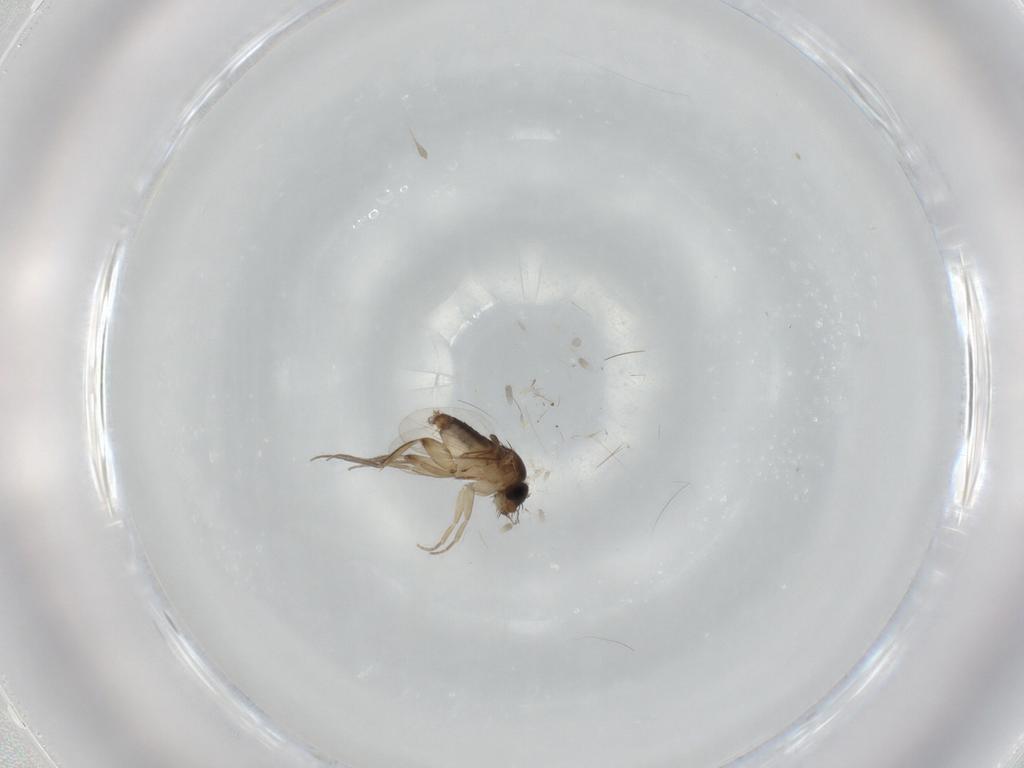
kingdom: Animalia
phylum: Arthropoda
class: Insecta
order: Diptera
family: Phoridae
